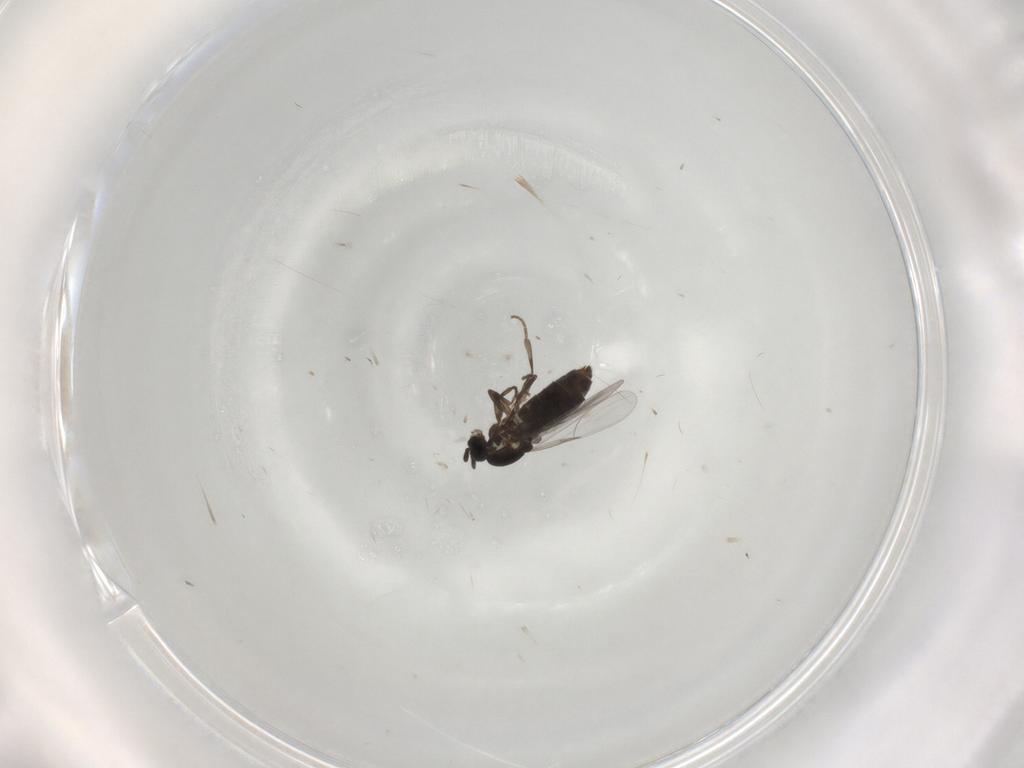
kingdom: Animalia
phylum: Arthropoda
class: Insecta
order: Diptera
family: Scatopsidae
